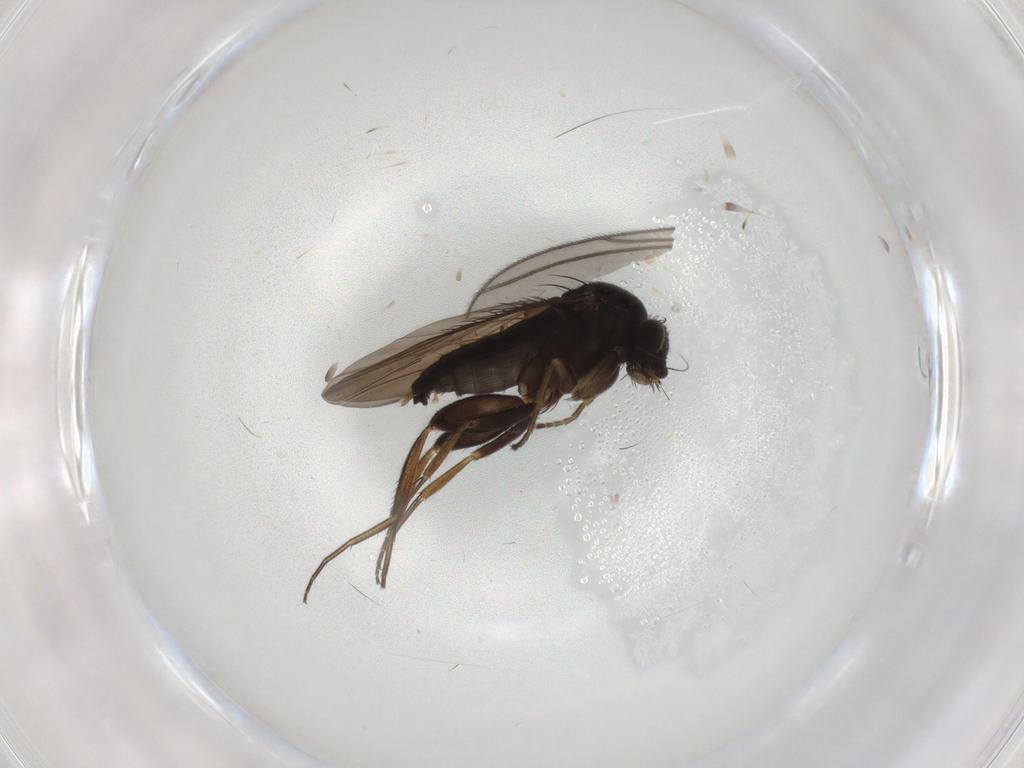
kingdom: Animalia
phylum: Arthropoda
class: Insecta
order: Diptera
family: Phoridae
